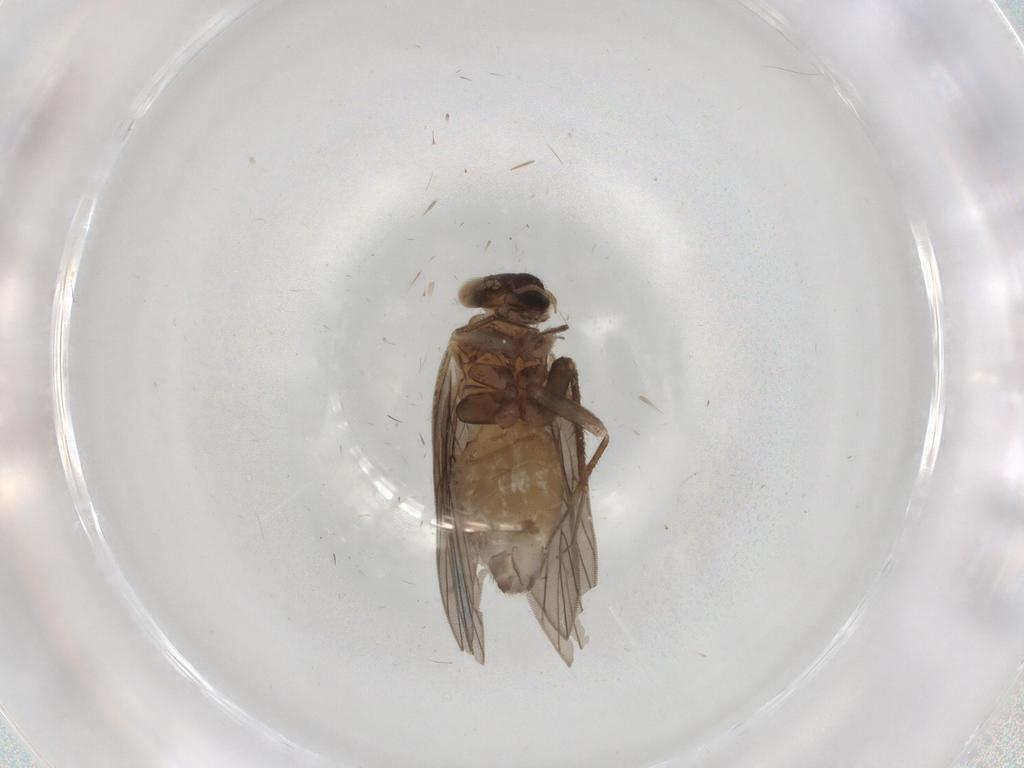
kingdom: Animalia
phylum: Arthropoda
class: Insecta
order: Psocodea
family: Lepidopsocidae
